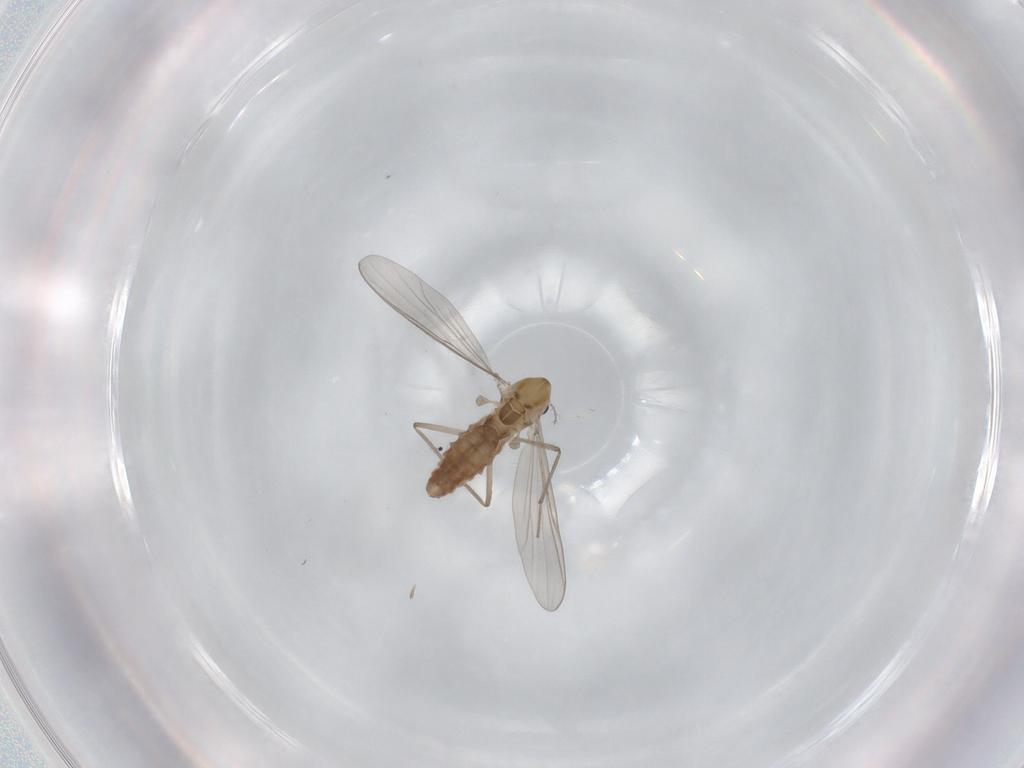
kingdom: Animalia
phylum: Arthropoda
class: Insecta
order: Diptera
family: Chironomidae
